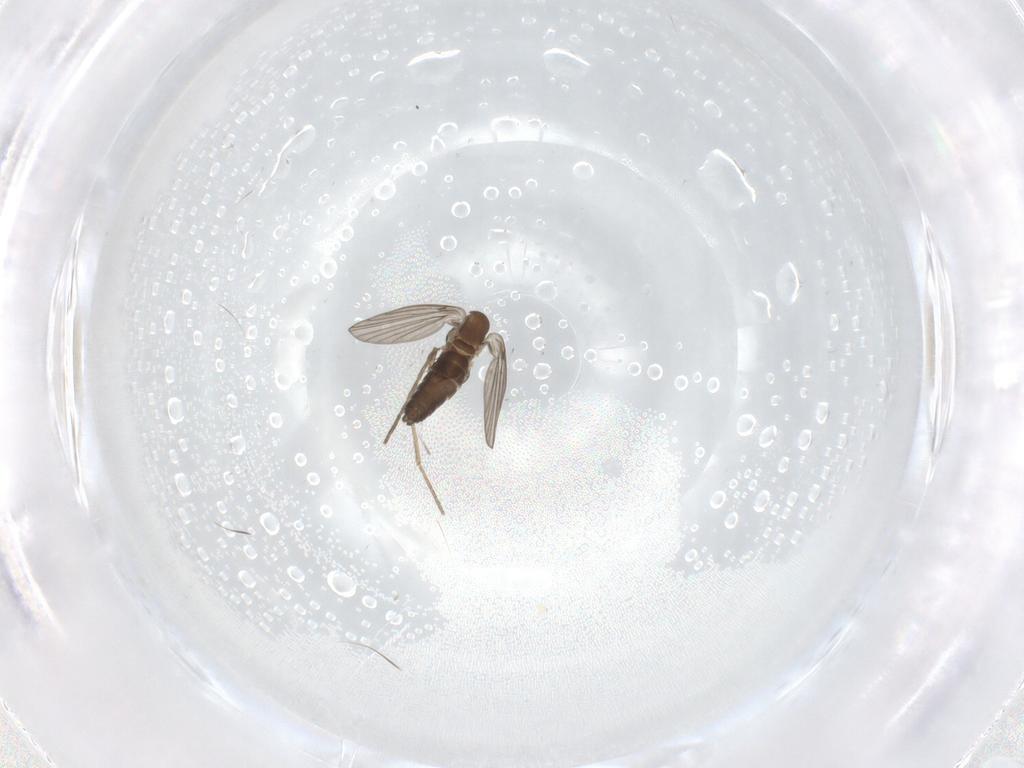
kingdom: Animalia
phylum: Arthropoda
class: Insecta
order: Diptera
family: Psychodidae
